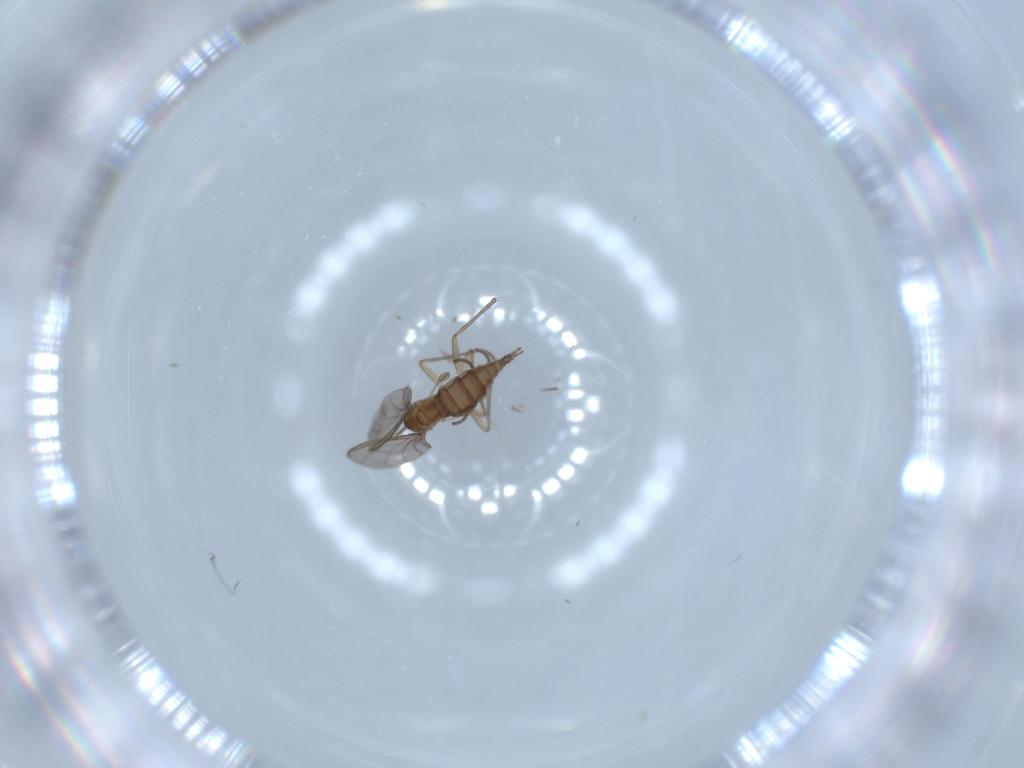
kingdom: Animalia
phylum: Arthropoda
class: Insecta
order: Diptera
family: Sciaridae
